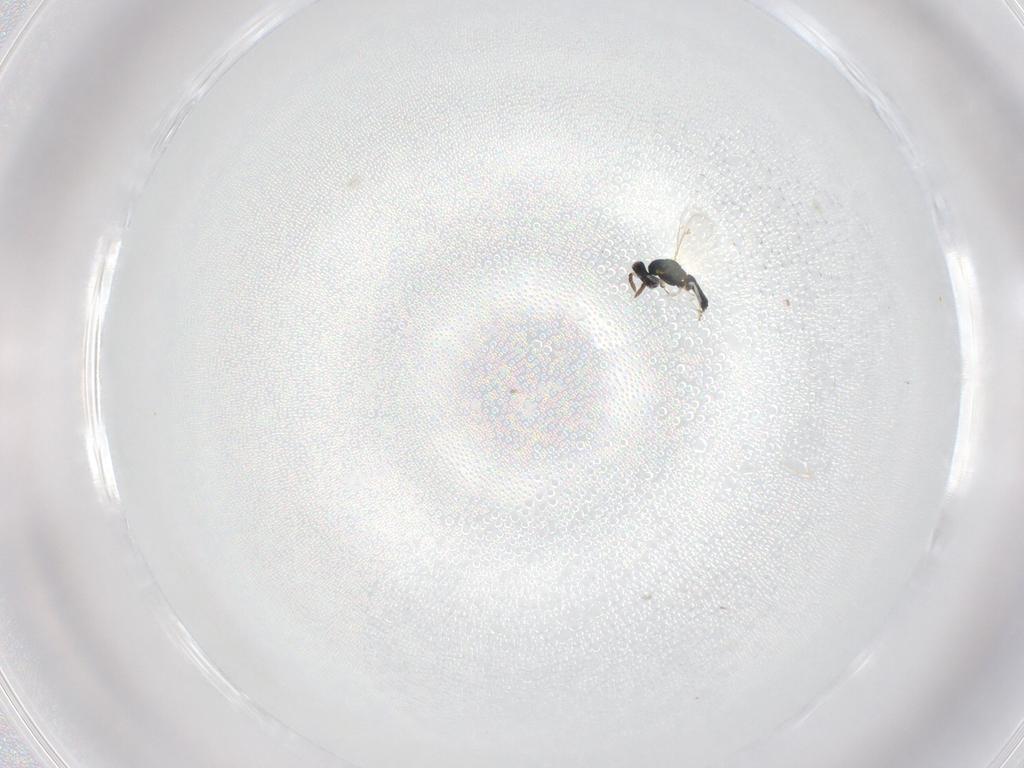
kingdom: Animalia
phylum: Arthropoda
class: Insecta
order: Hymenoptera
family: Eulophidae
